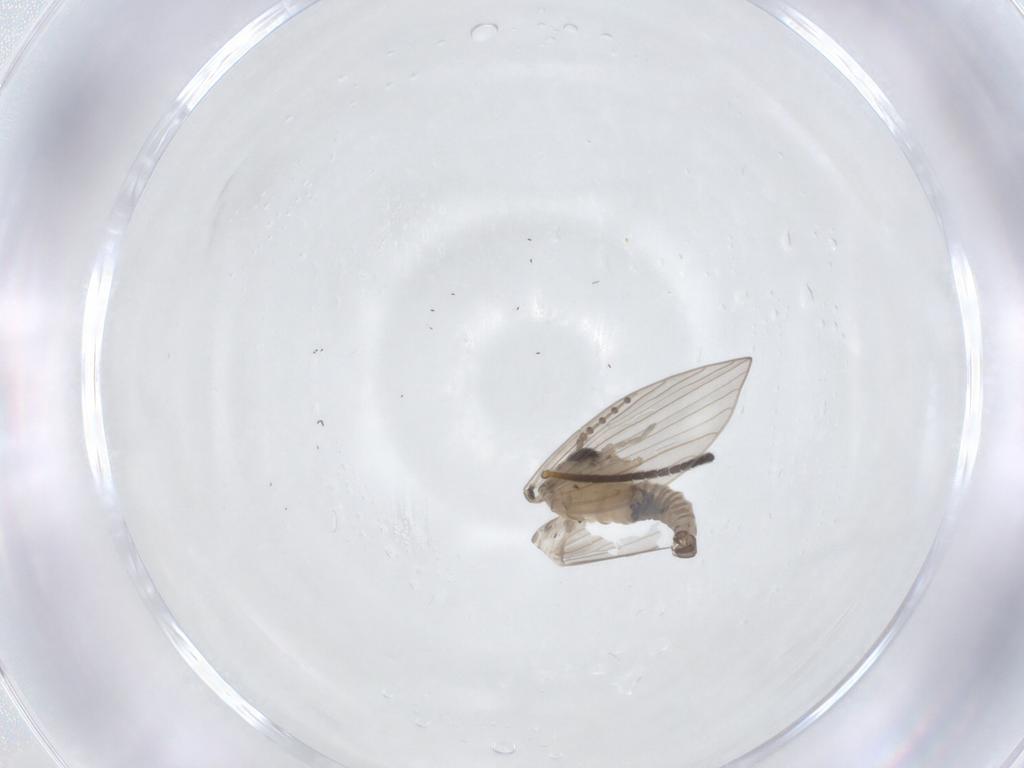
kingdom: Animalia
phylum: Arthropoda
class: Insecta
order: Diptera
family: Psychodidae
